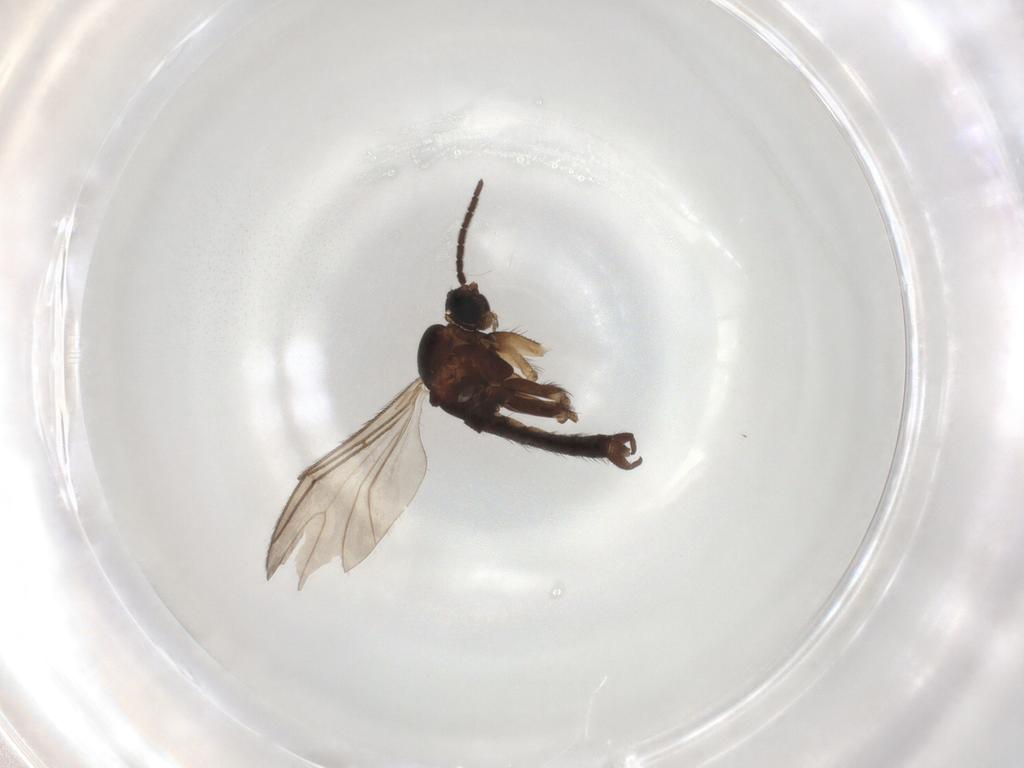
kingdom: Animalia
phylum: Arthropoda
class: Insecta
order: Diptera
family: Sciaridae
